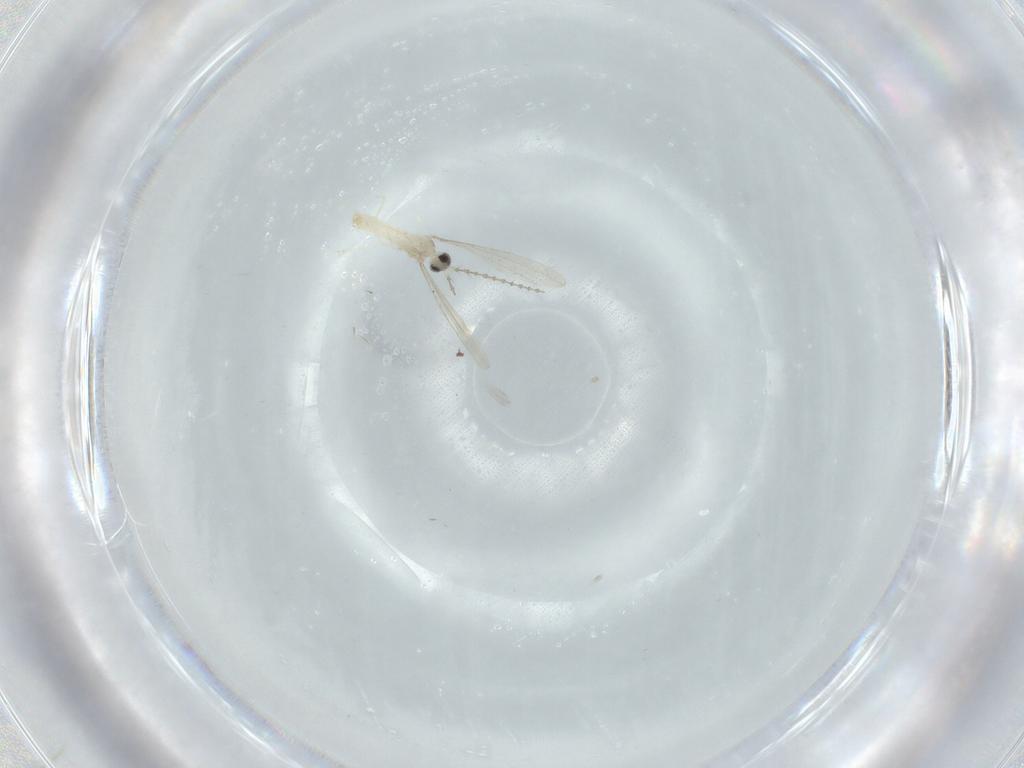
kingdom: Animalia
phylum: Arthropoda
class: Insecta
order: Diptera
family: Cecidomyiidae
